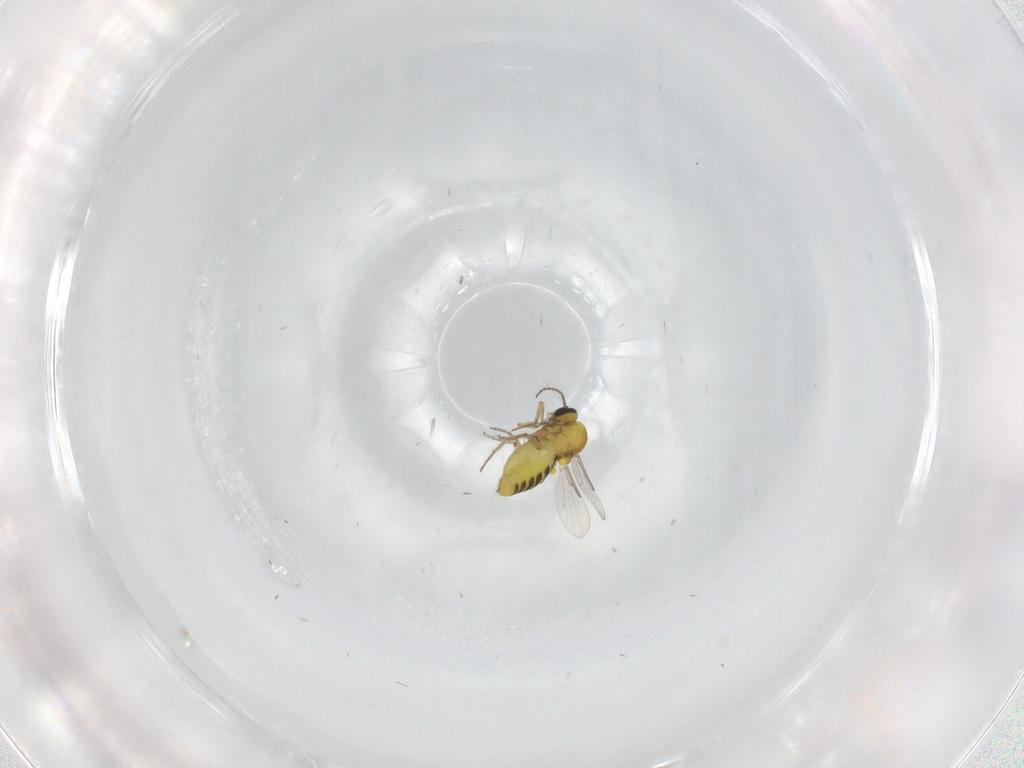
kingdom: Animalia
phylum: Arthropoda
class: Insecta
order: Diptera
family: Ceratopogonidae
